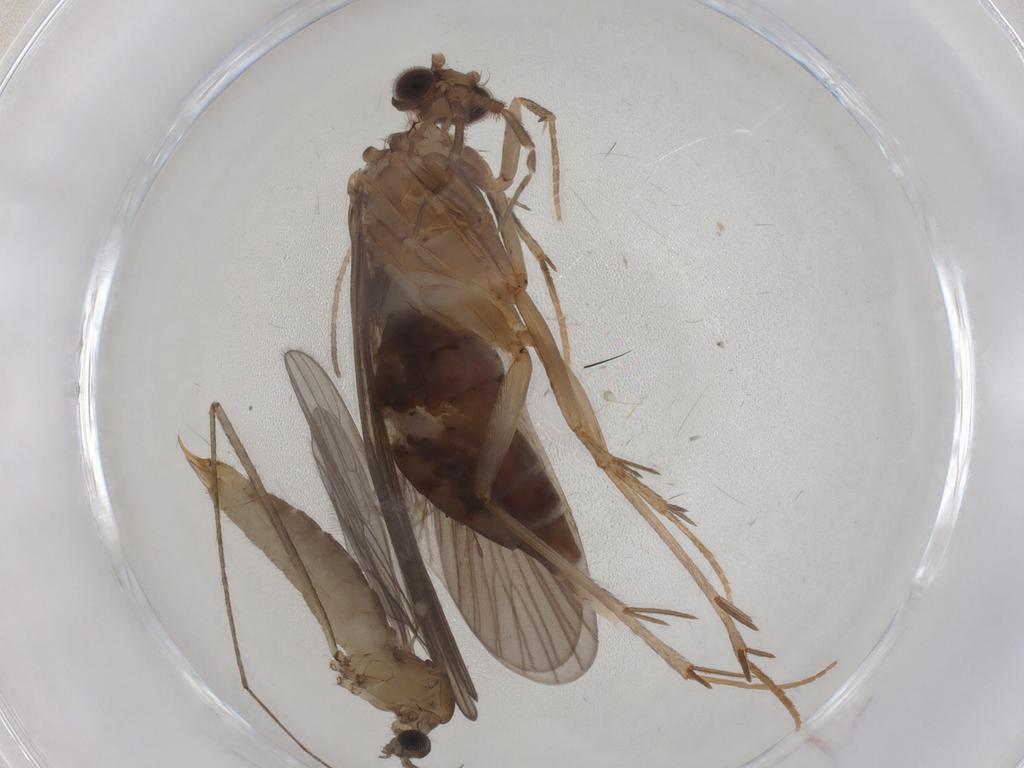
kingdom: Animalia
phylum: Arthropoda
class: Insecta
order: Trichoptera
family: Philopotamidae
